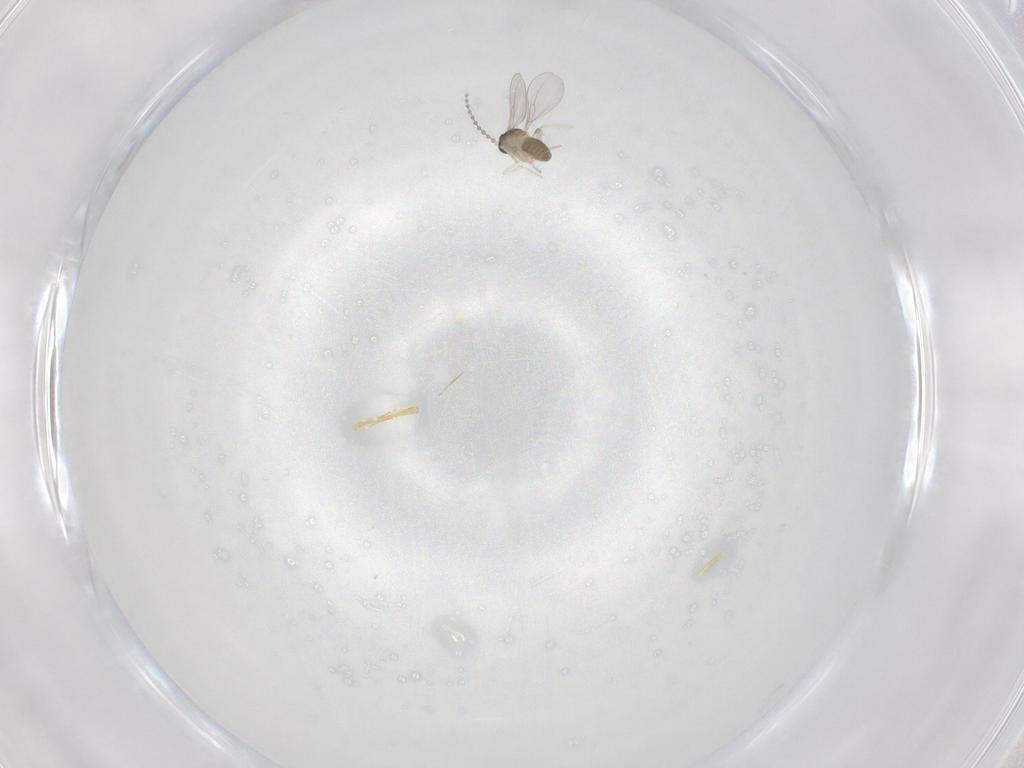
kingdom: Animalia
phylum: Arthropoda
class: Insecta
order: Diptera
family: Cecidomyiidae
